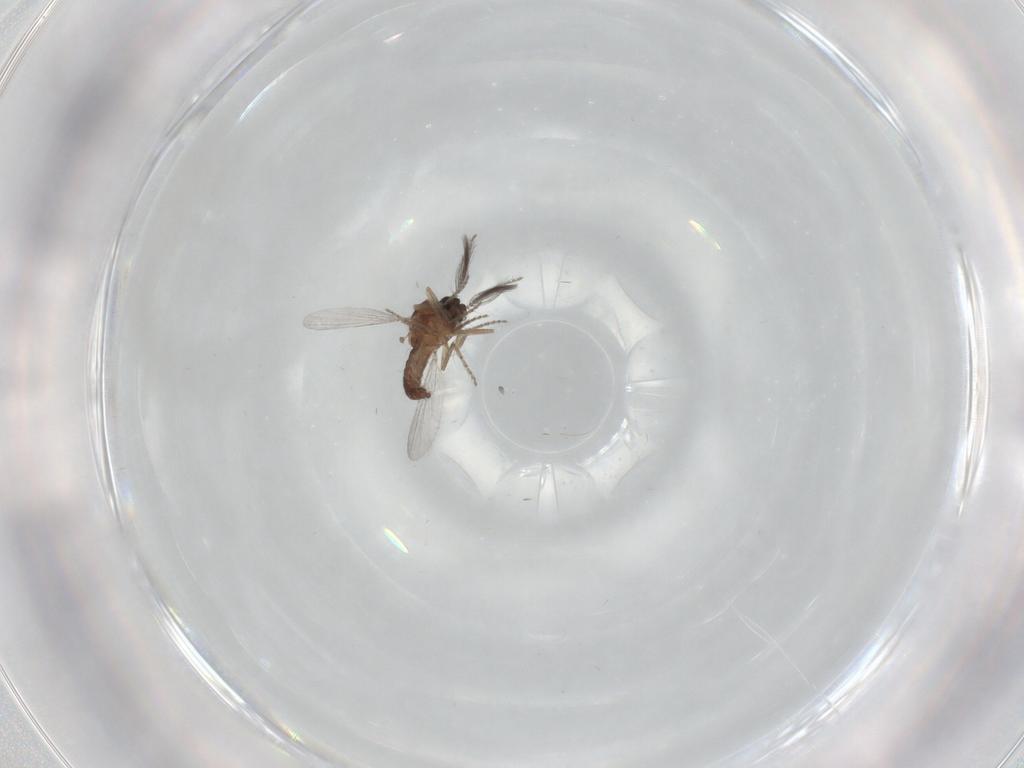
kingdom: Animalia
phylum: Arthropoda
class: Insecta
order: Diptera
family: Ceratopogonidae
